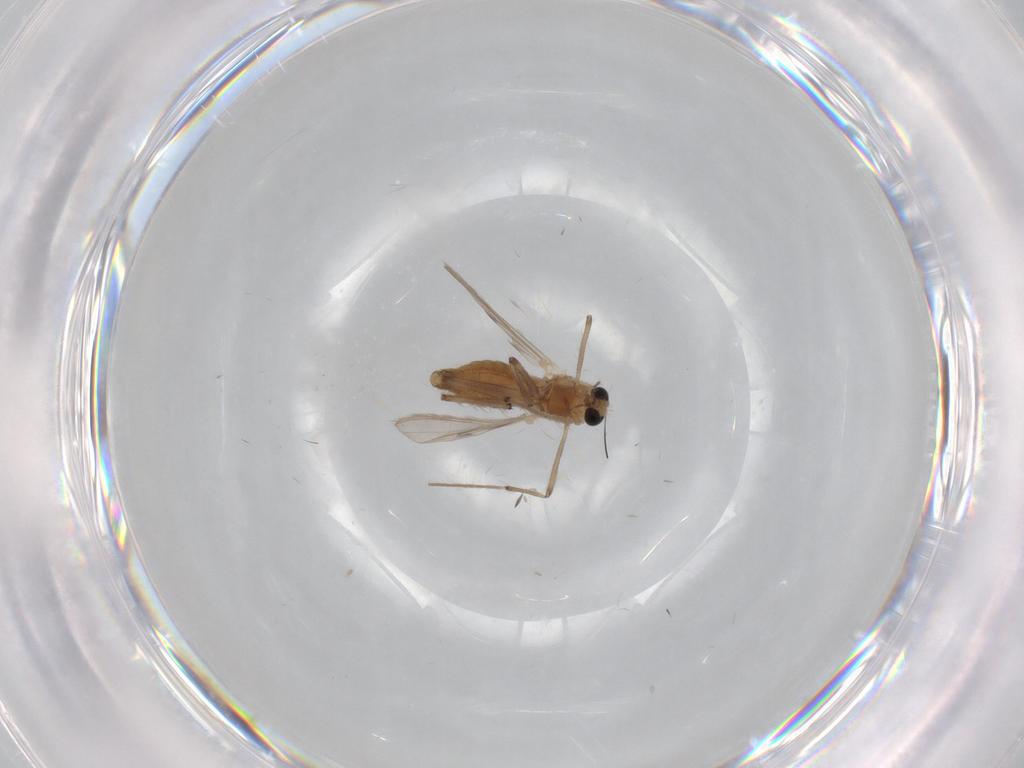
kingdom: Animalia
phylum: Arthropoda
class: Insecta
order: Diptera
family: Chironomidae
